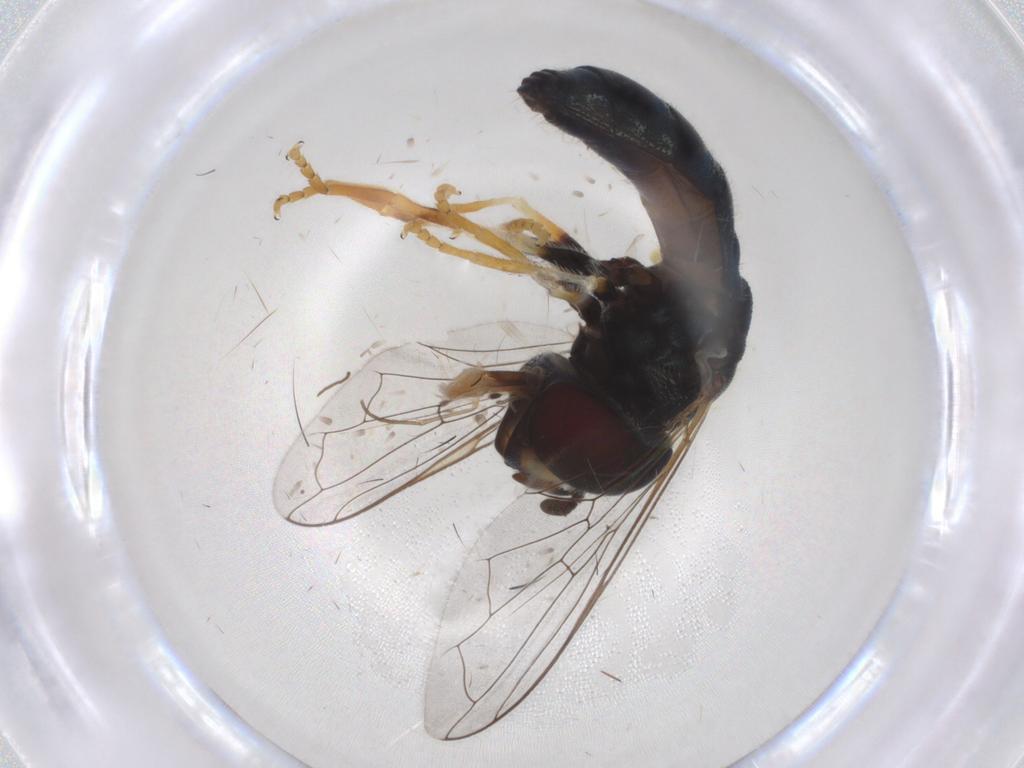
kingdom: Animalia
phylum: Arthropoda
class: Insecta
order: Diptera
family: Syrphidae
